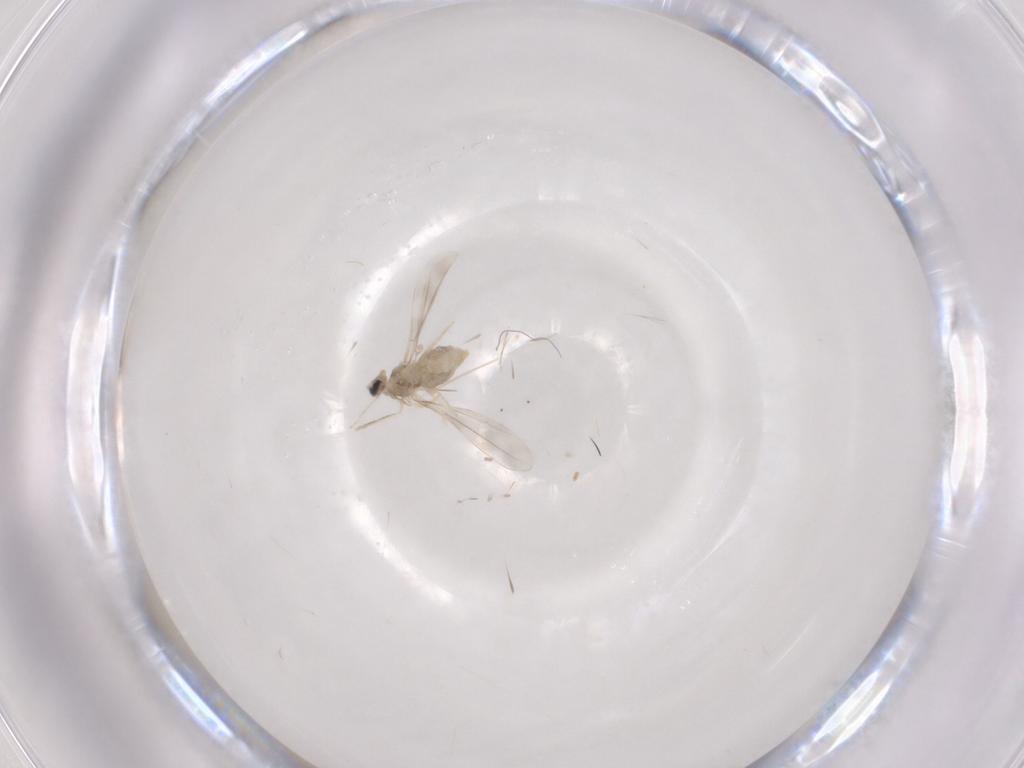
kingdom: Animalia
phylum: Arthropoda
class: Insecta
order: Diptera
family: Cecidomyiidae
